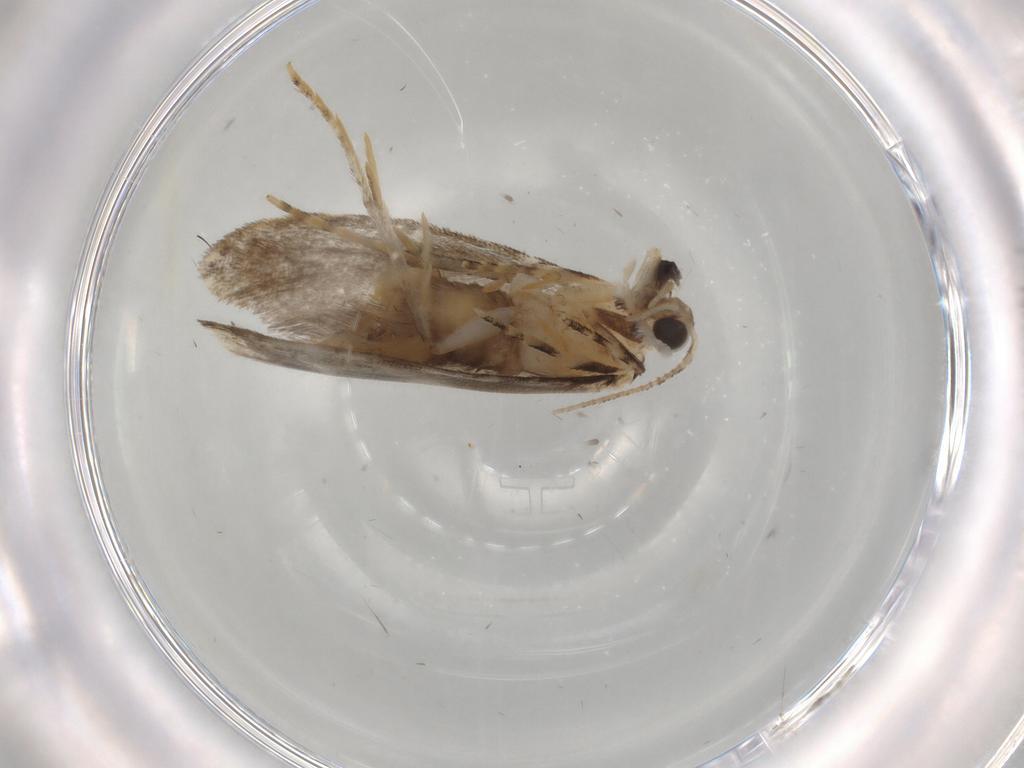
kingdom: Animalia
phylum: Arthropoda
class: Insecta
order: Lepidoptera
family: Tineidae
